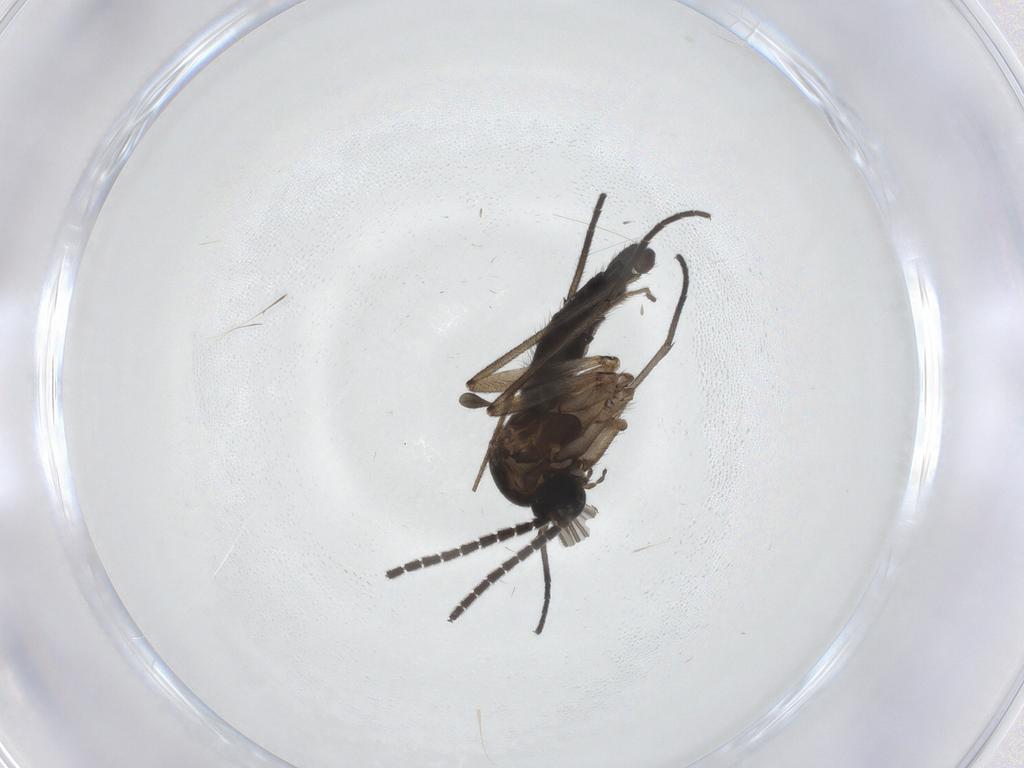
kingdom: Animalia
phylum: Arthropoda
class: Insecta
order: Diptera
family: Sciaridae
